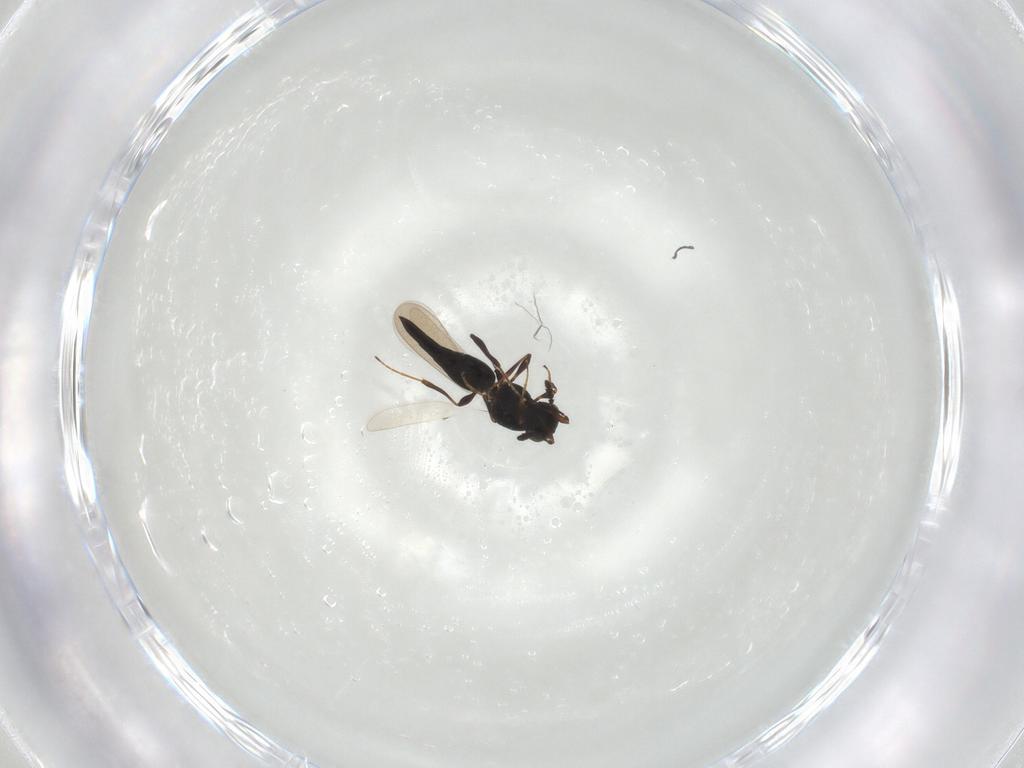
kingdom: Animalia
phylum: Arthropoda
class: Insecta
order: Hymenoptera
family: Platygastridae
